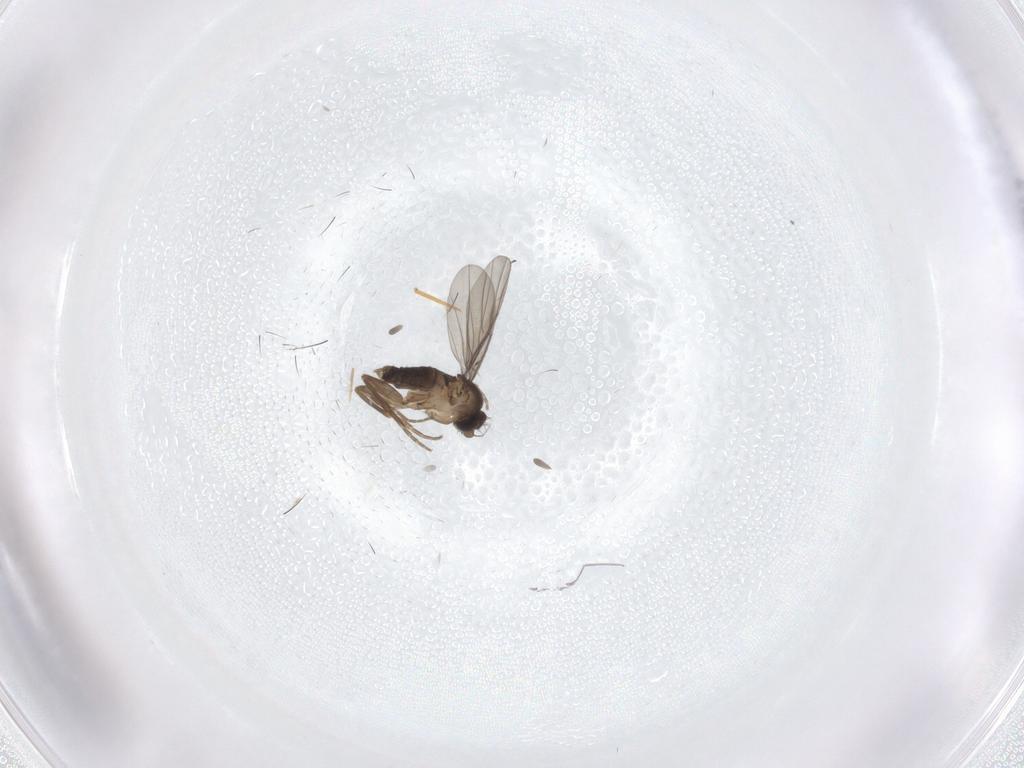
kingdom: Animalia
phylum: Arthropoda
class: Insecta
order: Diptera
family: Phoridae
